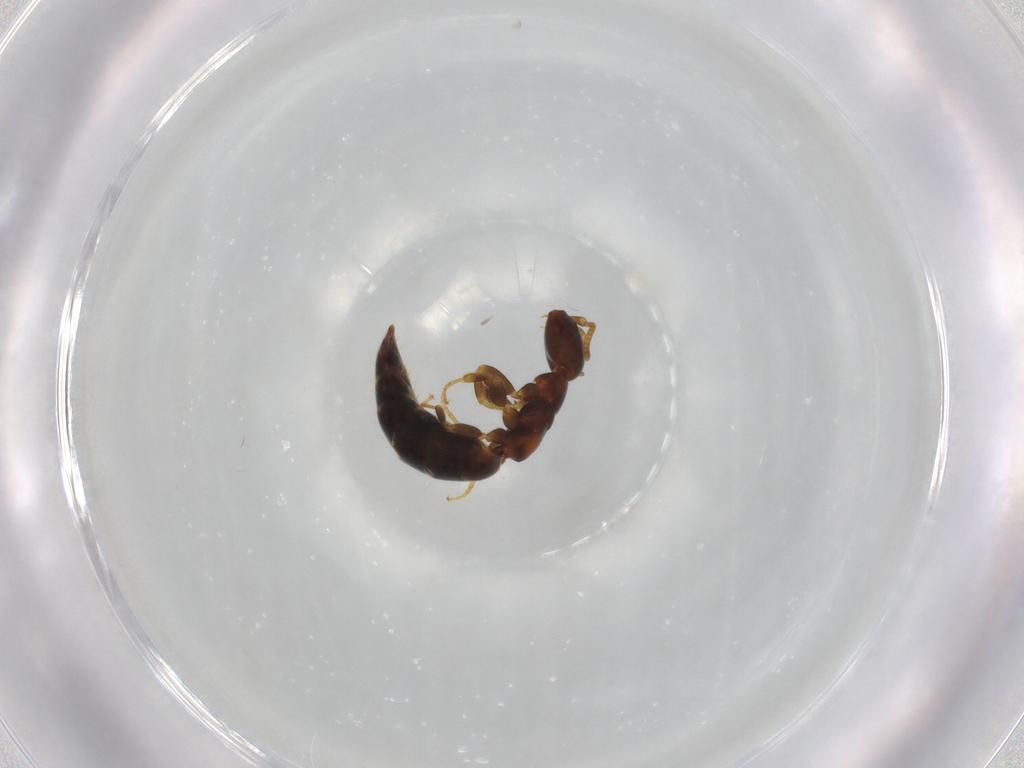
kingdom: Animalia
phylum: Arthropoda
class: Insecta
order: Hymenoptera
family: Bethylidae
